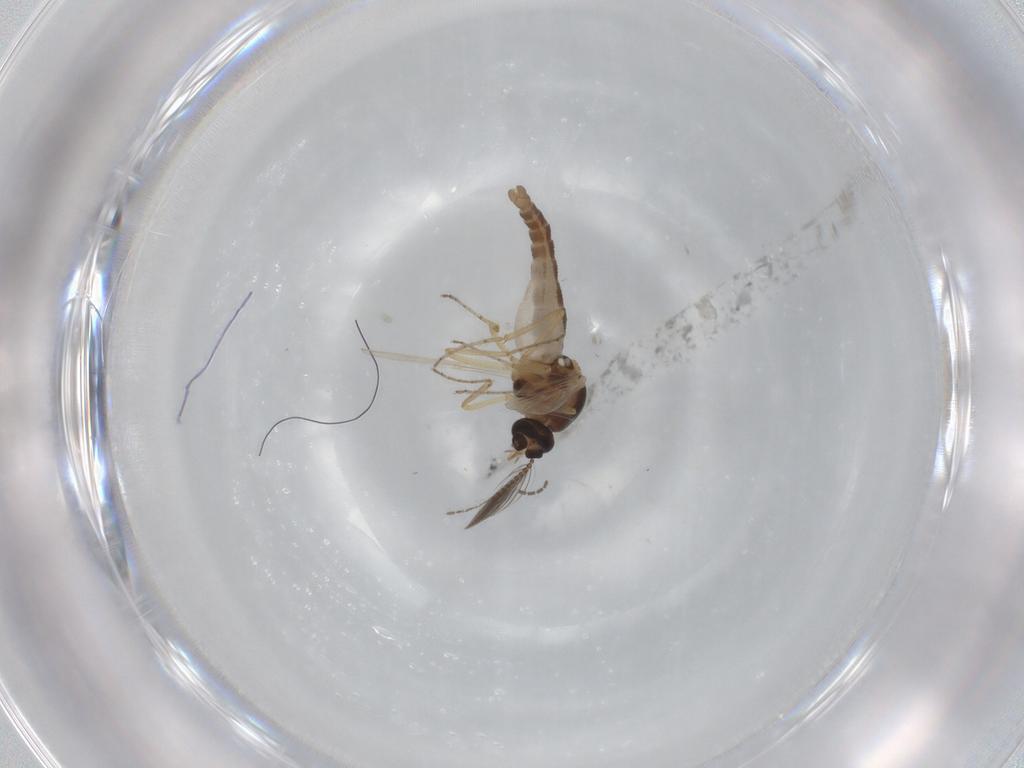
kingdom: Animalia
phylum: Arthropoda
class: Insecta
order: Diptera
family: Ceratopogonidae
